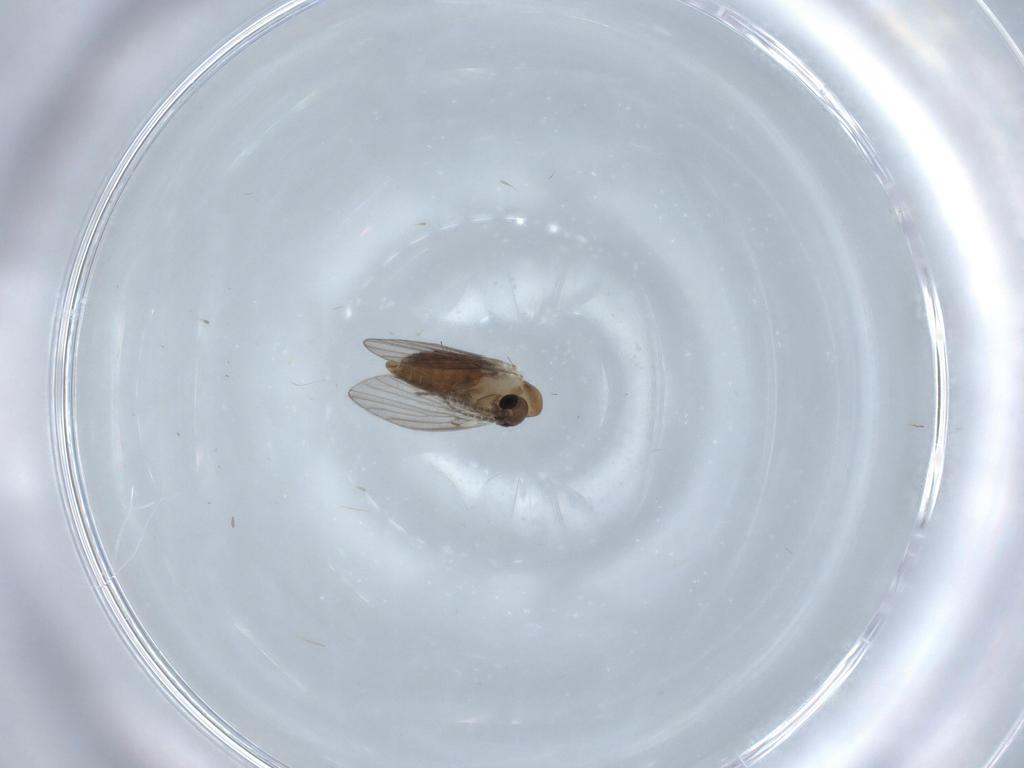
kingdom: Animalia
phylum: Arthropoda
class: Insecta
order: Diptera
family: Psychodidae
